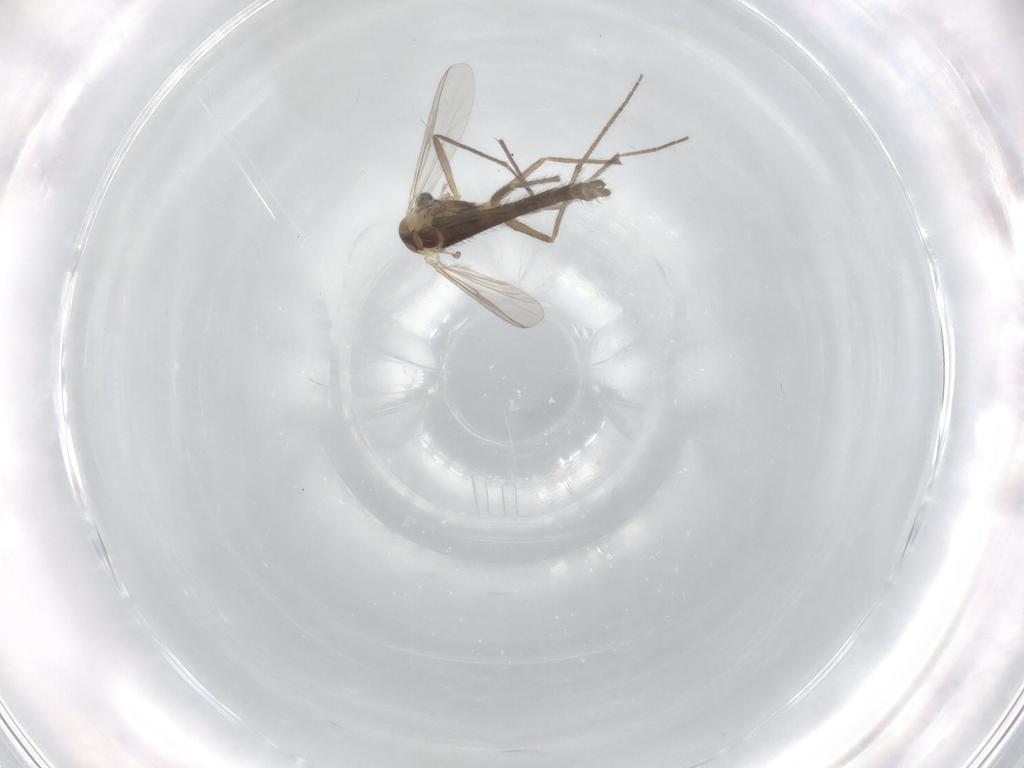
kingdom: Animalia
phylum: Arthropoda
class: Insecta
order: Diptera
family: Chironomidae
